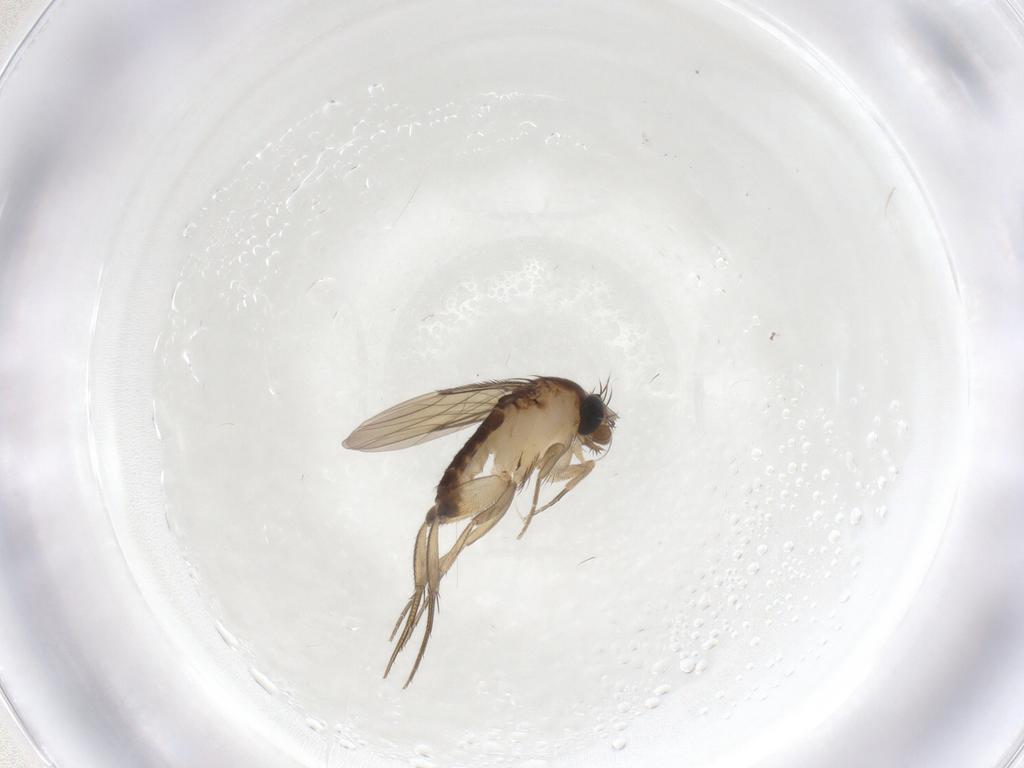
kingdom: Animalia
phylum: Arthropoda
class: Insecta
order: Diptera
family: Phoridae
